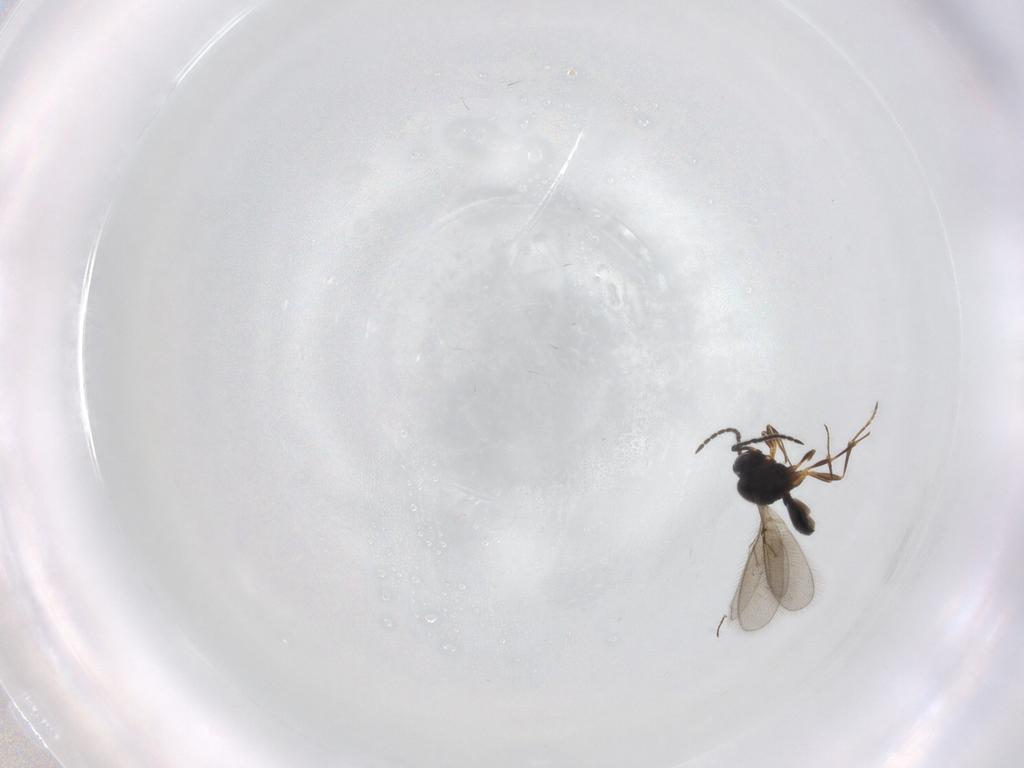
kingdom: Animalia
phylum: Arthropoda
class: Insecta
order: Hymenoptera
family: Scelionidae
